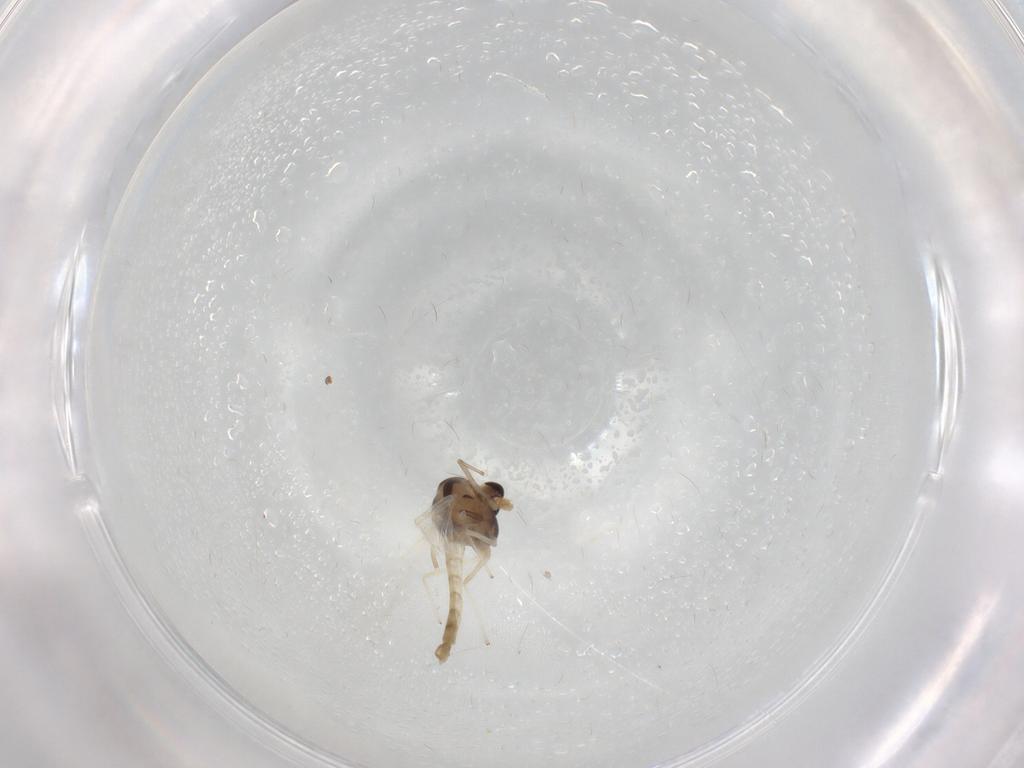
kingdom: Animalia
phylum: Arthropoda
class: Insecta
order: Diptera
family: Chironomidae
